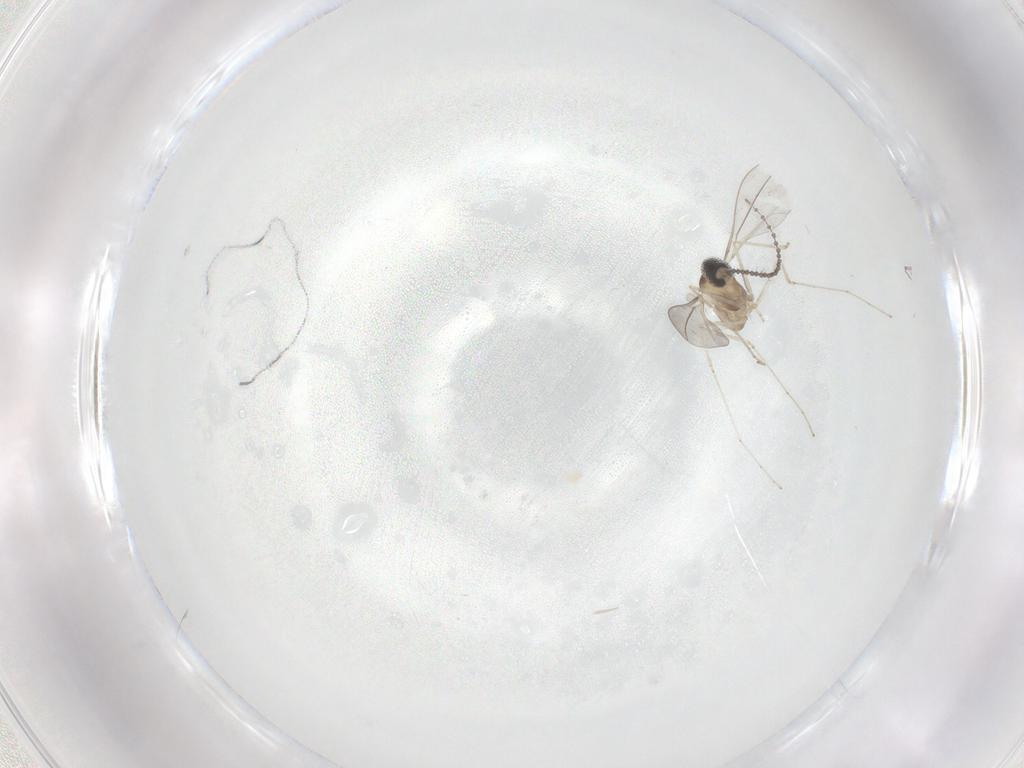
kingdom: Animalia
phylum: Arthropoda
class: Insecta
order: Diptera
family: Cecidomyiidae
